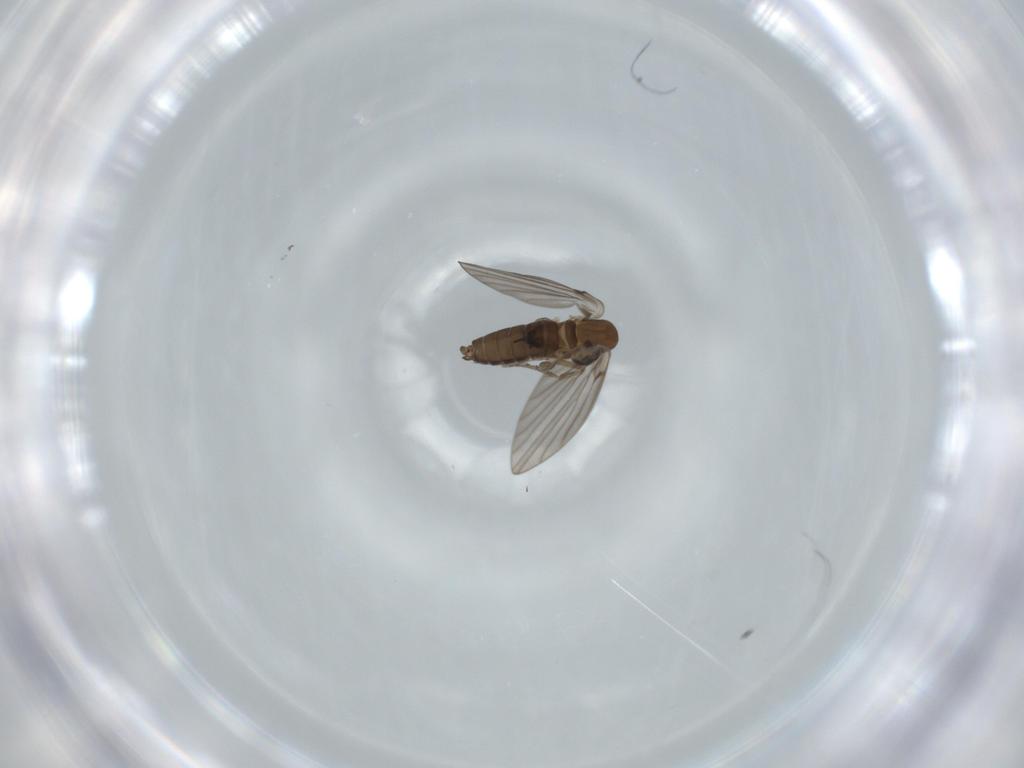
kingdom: Animalia
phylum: Arthropoda
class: Insecta
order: Diptera
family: Psychodidae
